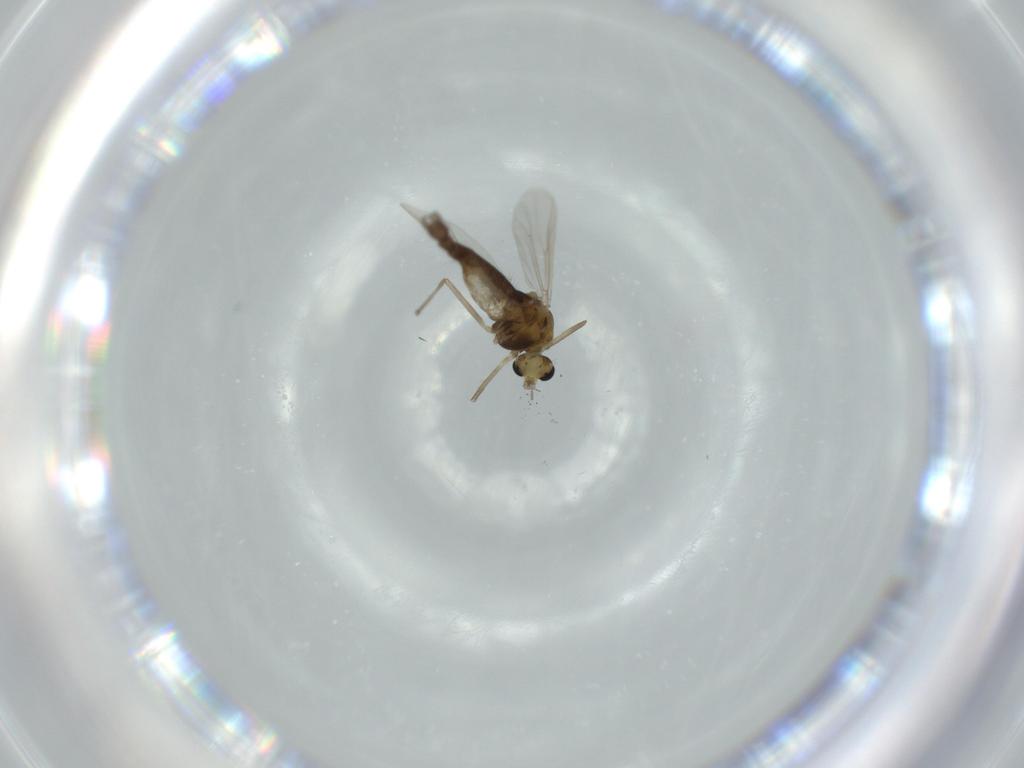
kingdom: Animalia
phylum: Arthropoda
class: Insecta
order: Diptera
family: Chironomidae
